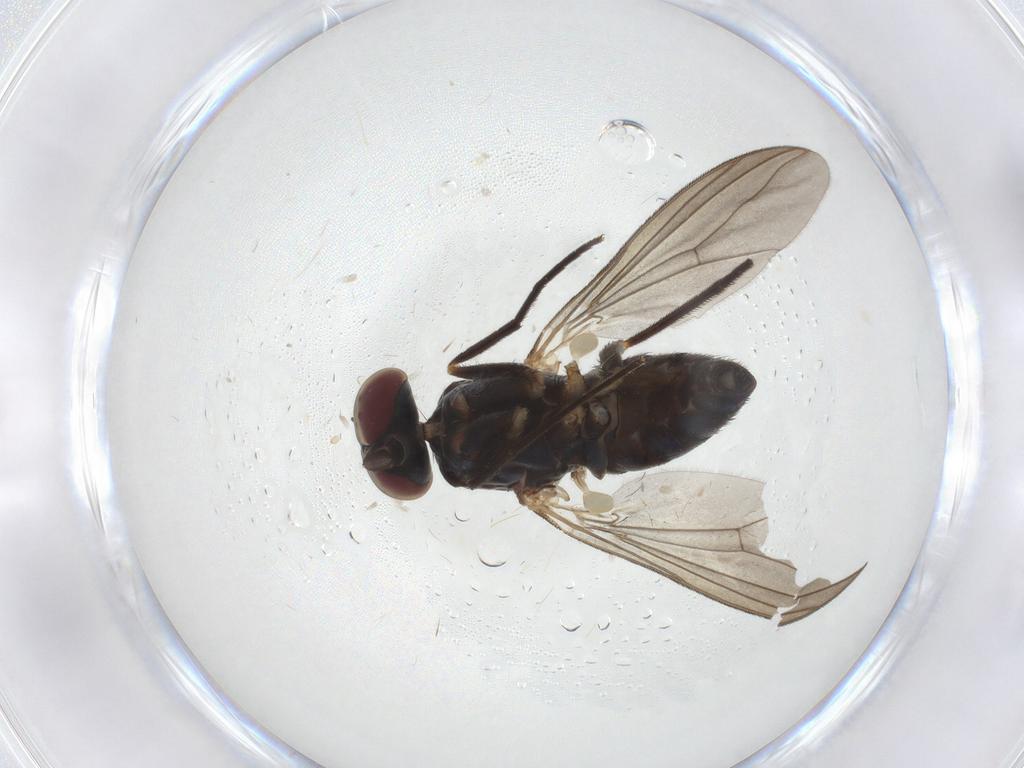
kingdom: Animalia
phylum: Arthropoda
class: Insecta
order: Diptera
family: Dolichopodidae
